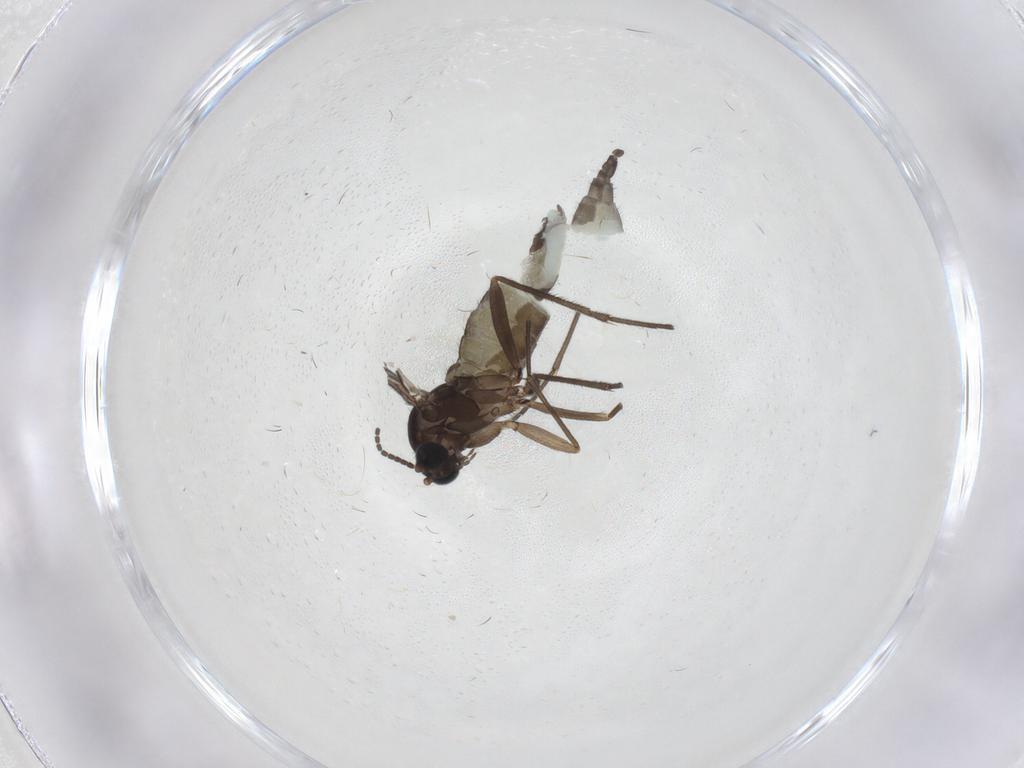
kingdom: Animalia
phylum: Arthropoda
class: Insecta
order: Diptera
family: Sciaridae
